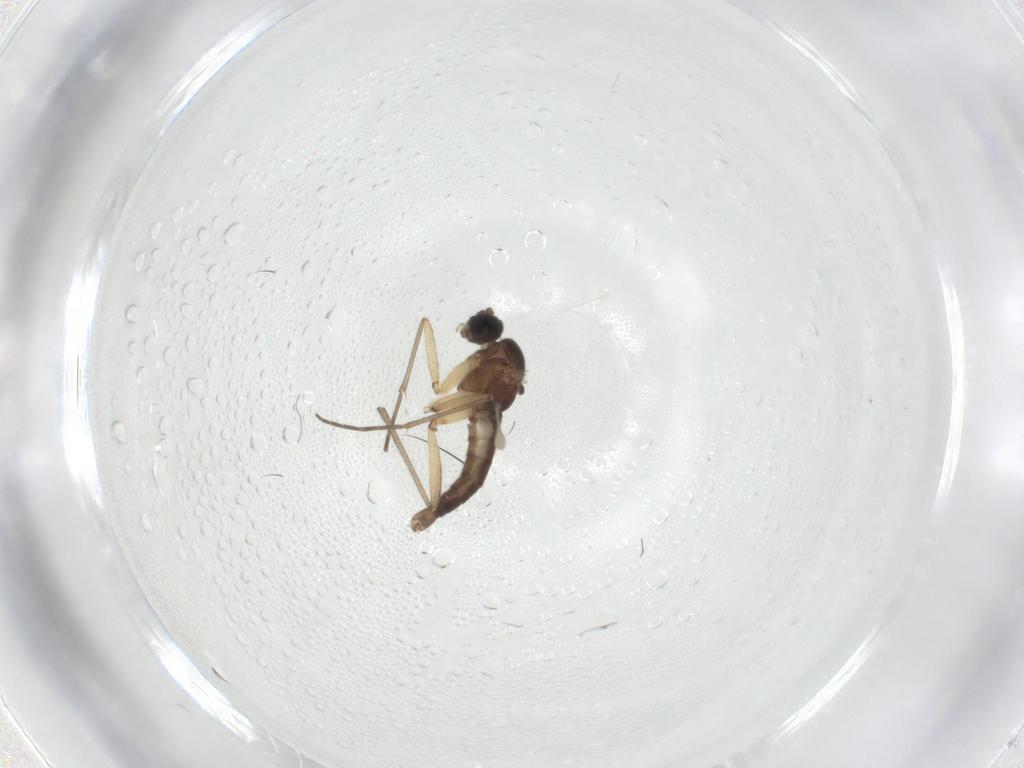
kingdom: Animalia
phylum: Arthropoda
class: Insecta
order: Diptera
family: Sciaridae
